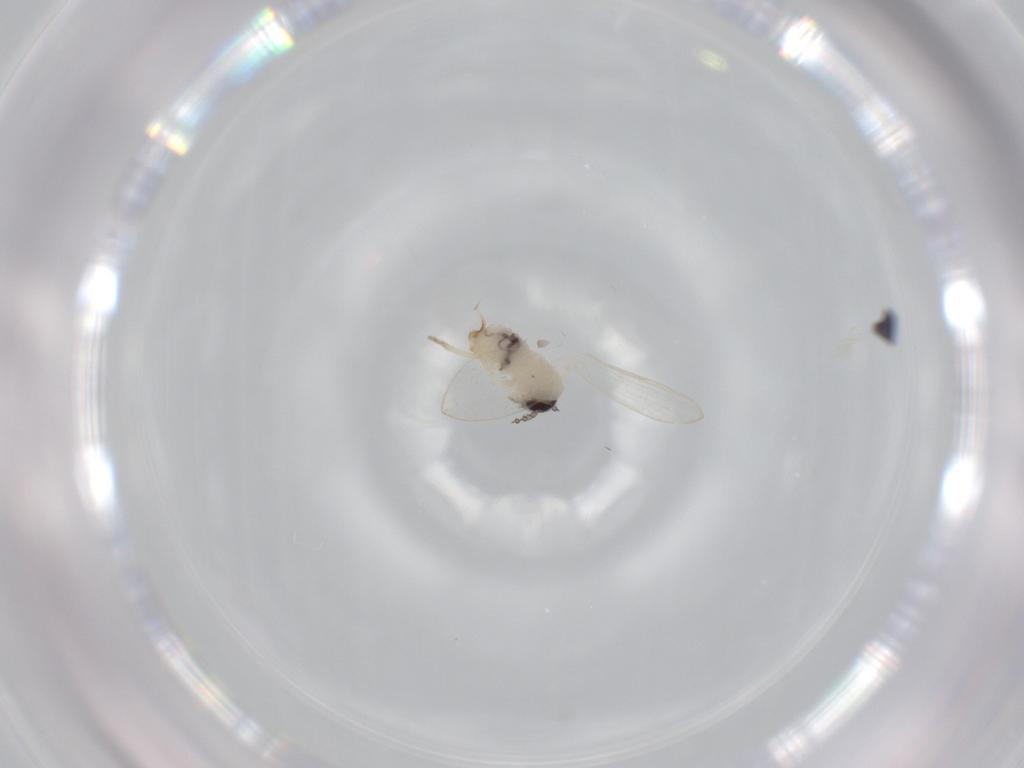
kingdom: Animalia
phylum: Arthropoda
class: Insecta
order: Diptera
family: Psychodidae
